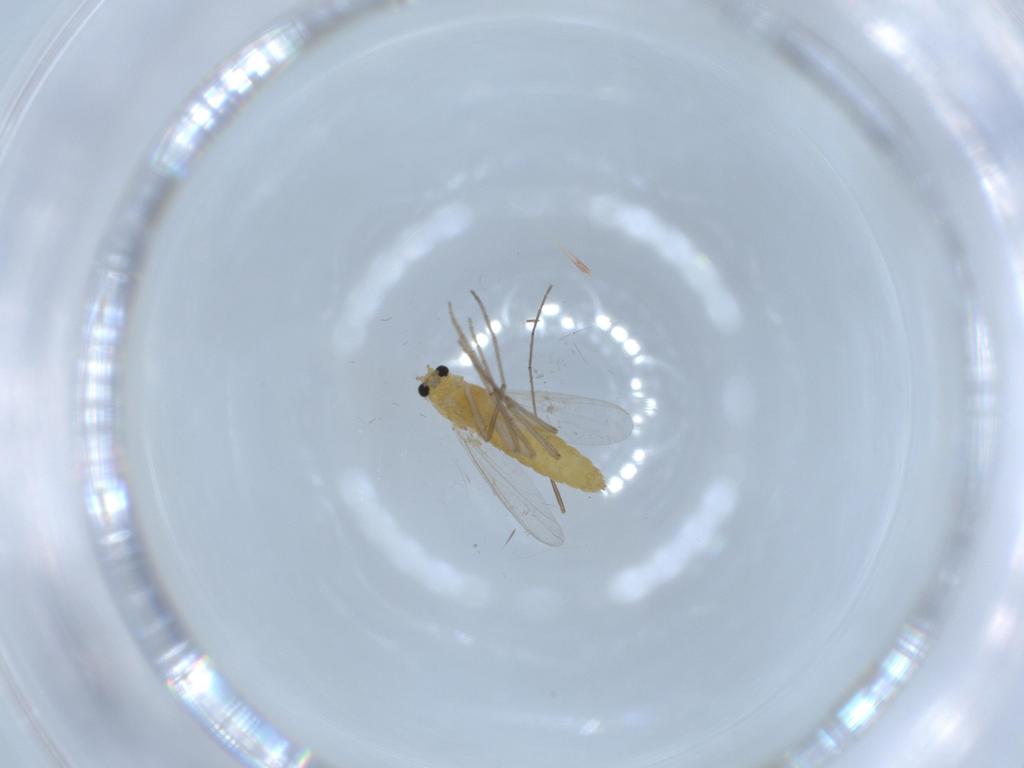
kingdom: Animalia
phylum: Arthropoda
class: Insecta
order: Diptera
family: Chironomidae
